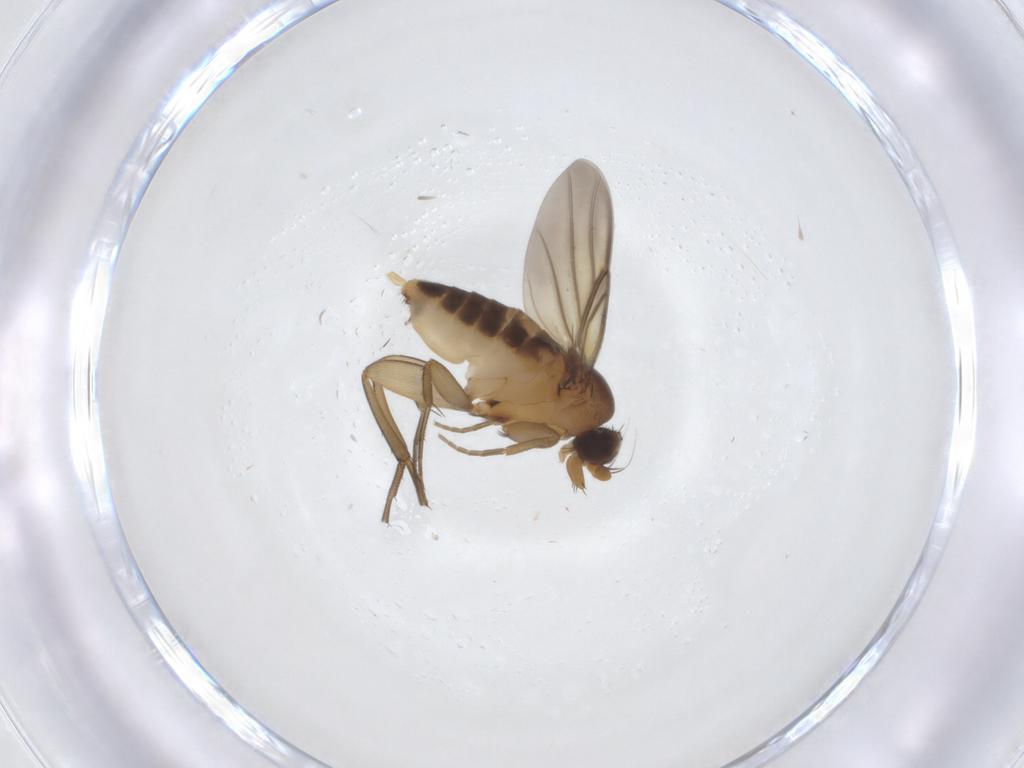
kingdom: Animalia
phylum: Arthropoda
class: Insecta
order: Diptera
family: Phoridae
